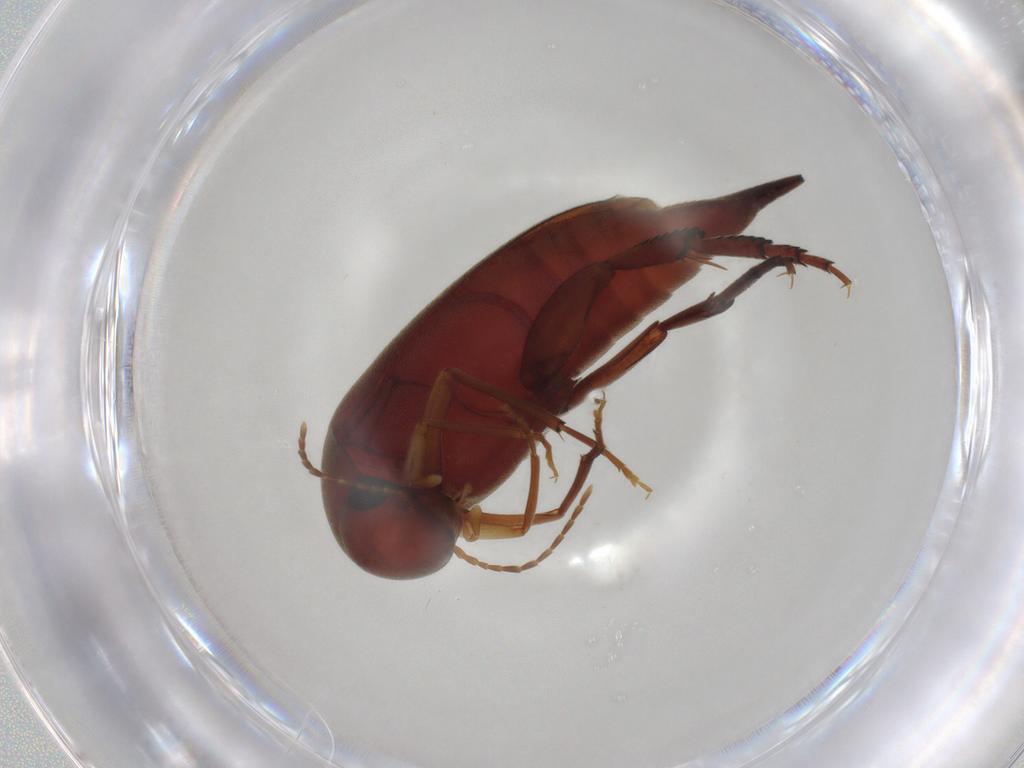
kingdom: Animalia
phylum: Arthropoda
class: Insecta
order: Coleoptera
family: Mordellidae
